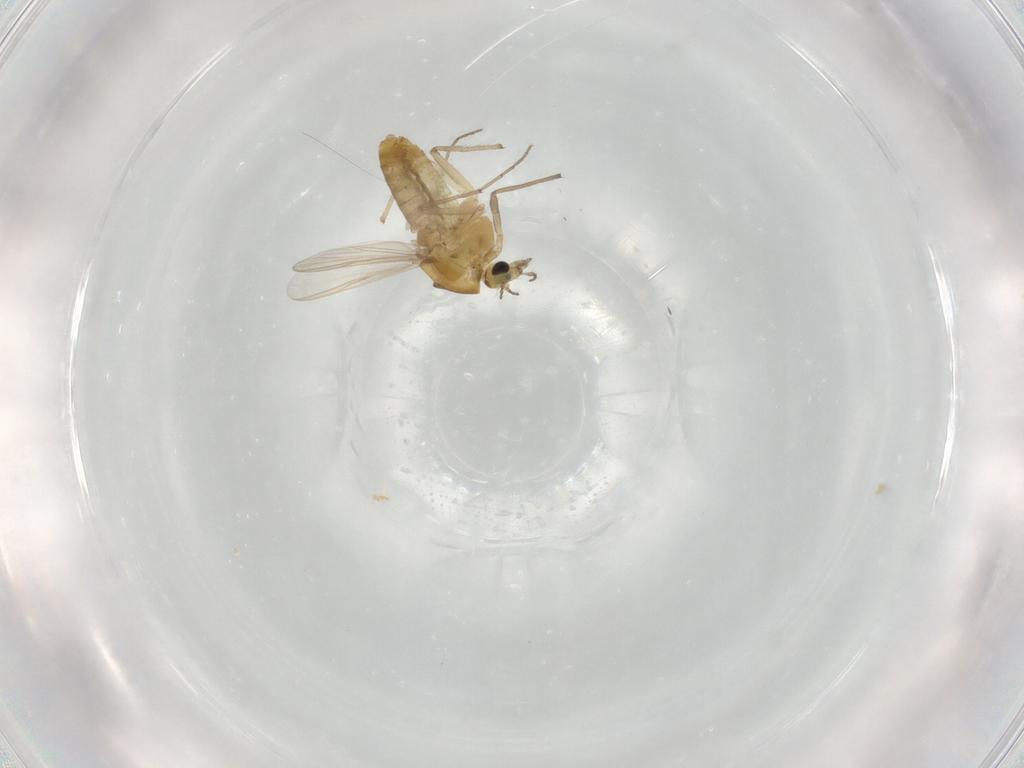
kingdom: Animalia
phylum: Arthropoda
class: Insecta
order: Diptera
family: Chironomidae
